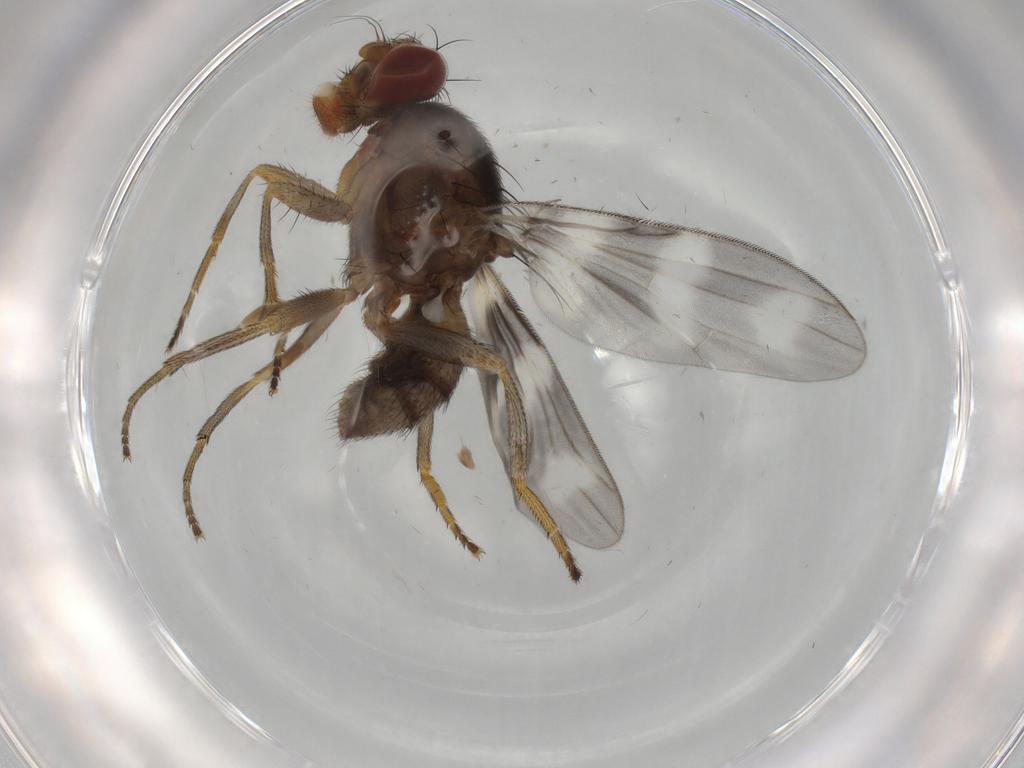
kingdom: Animalia
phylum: Arthropoda
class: Insecta
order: Diptera
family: Ulidiidae
